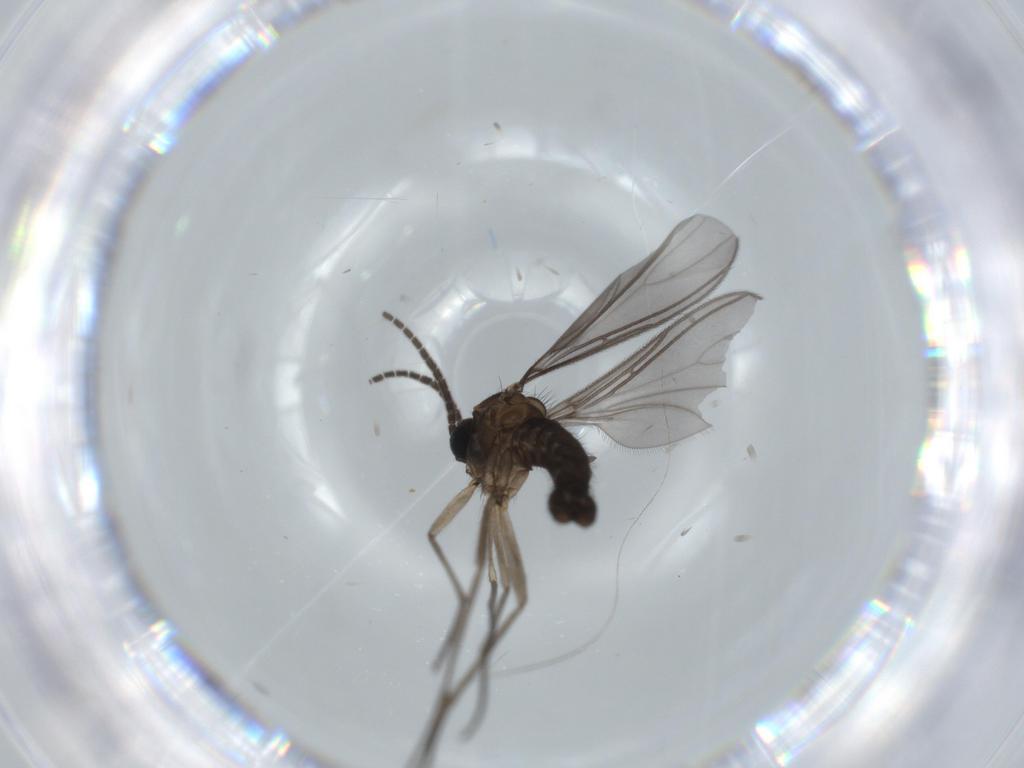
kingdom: Animalia
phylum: Arthropoda
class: Insecta
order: Diptera
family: Sciaridae
